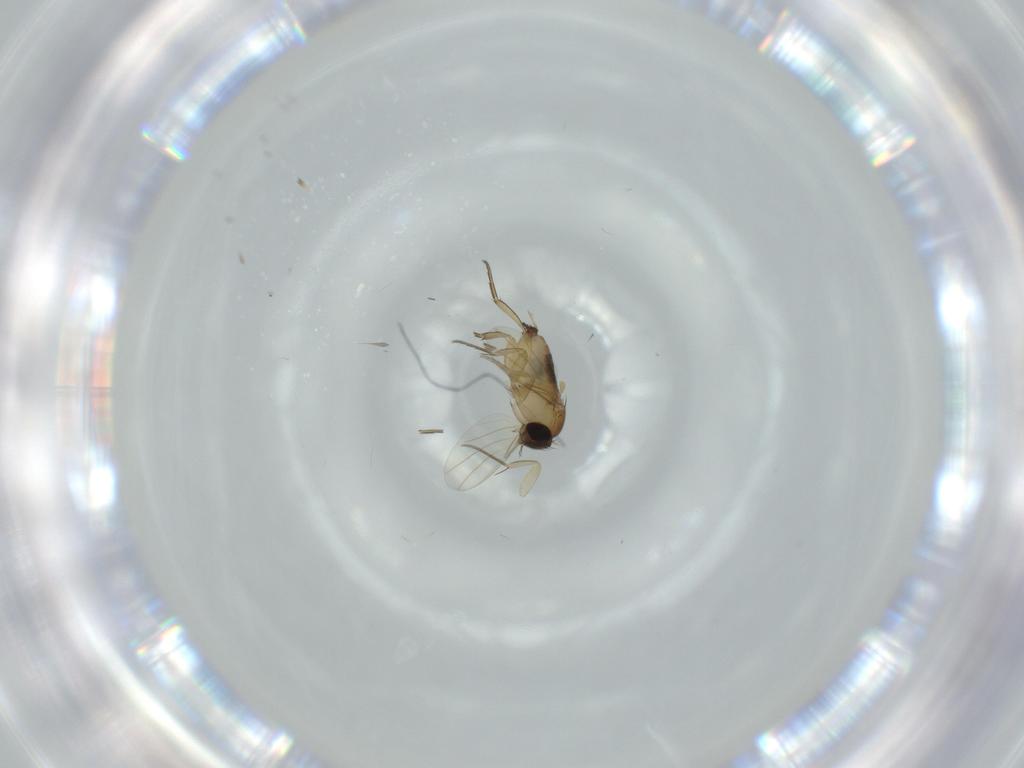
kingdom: Animalia
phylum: Arthropoda
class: Insecta
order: Diptera
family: Phoridae
